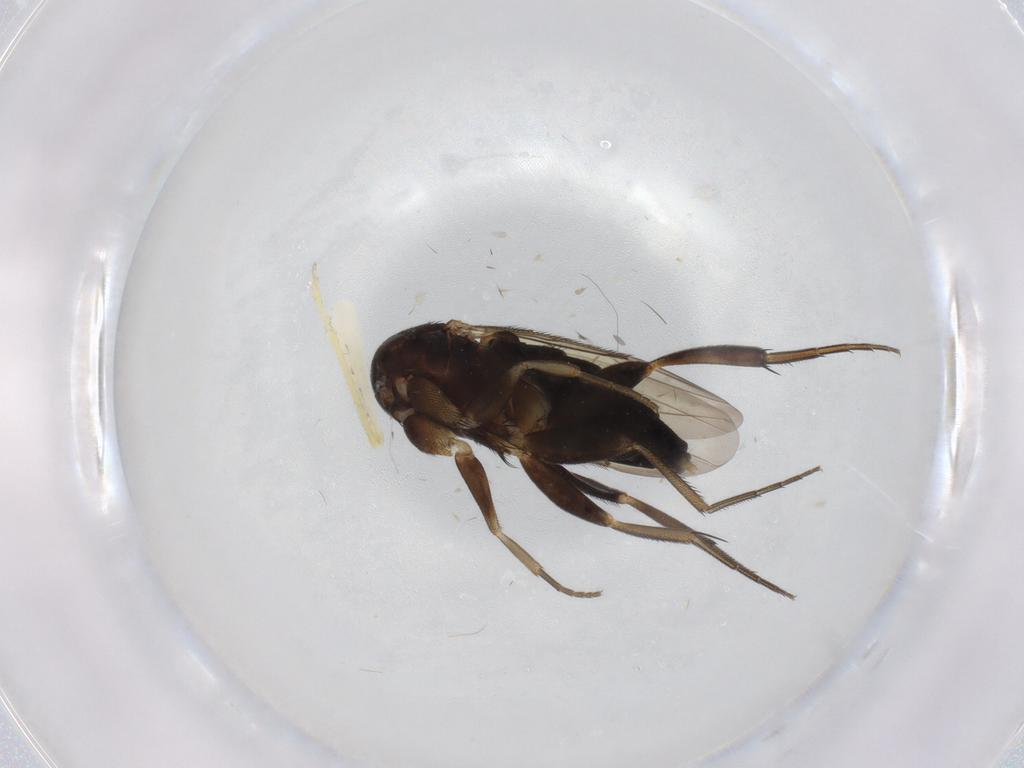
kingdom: Animalia
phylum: Arthropoda
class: Insecta
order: Diptera
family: Phoridae
